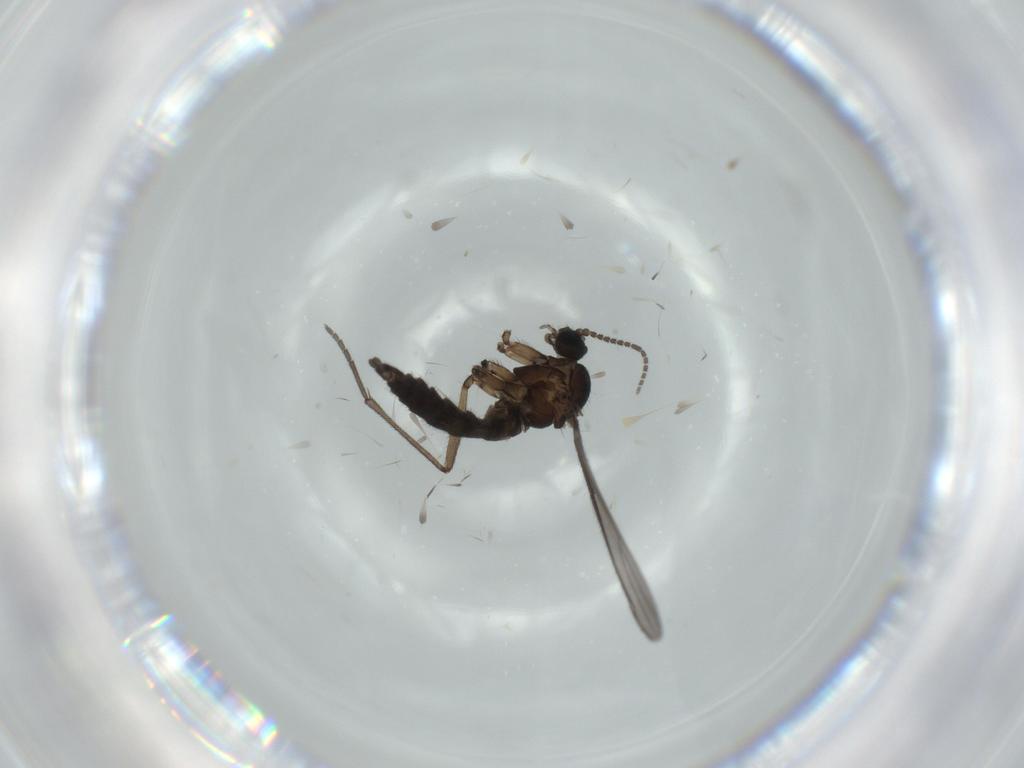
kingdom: Animalia
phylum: Arthropoda
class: Insecta
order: Diptera
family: Sciaridae
